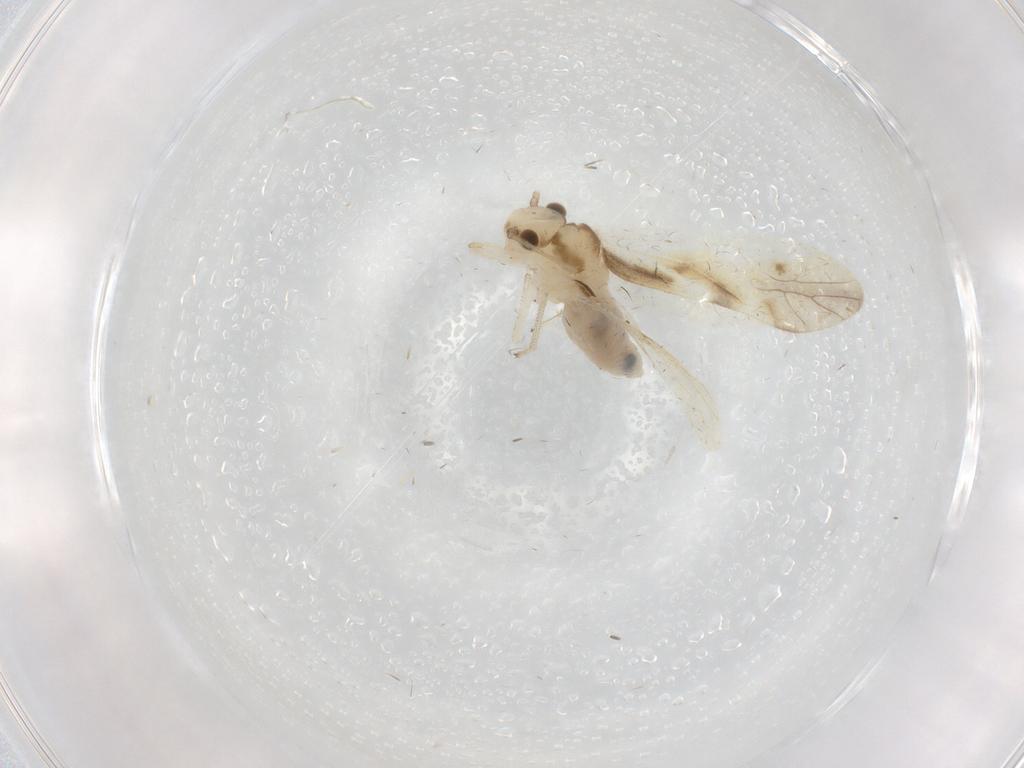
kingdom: Animalia
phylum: Arthropoda
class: Insecta
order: Psocodea
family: Caeciliusidae
